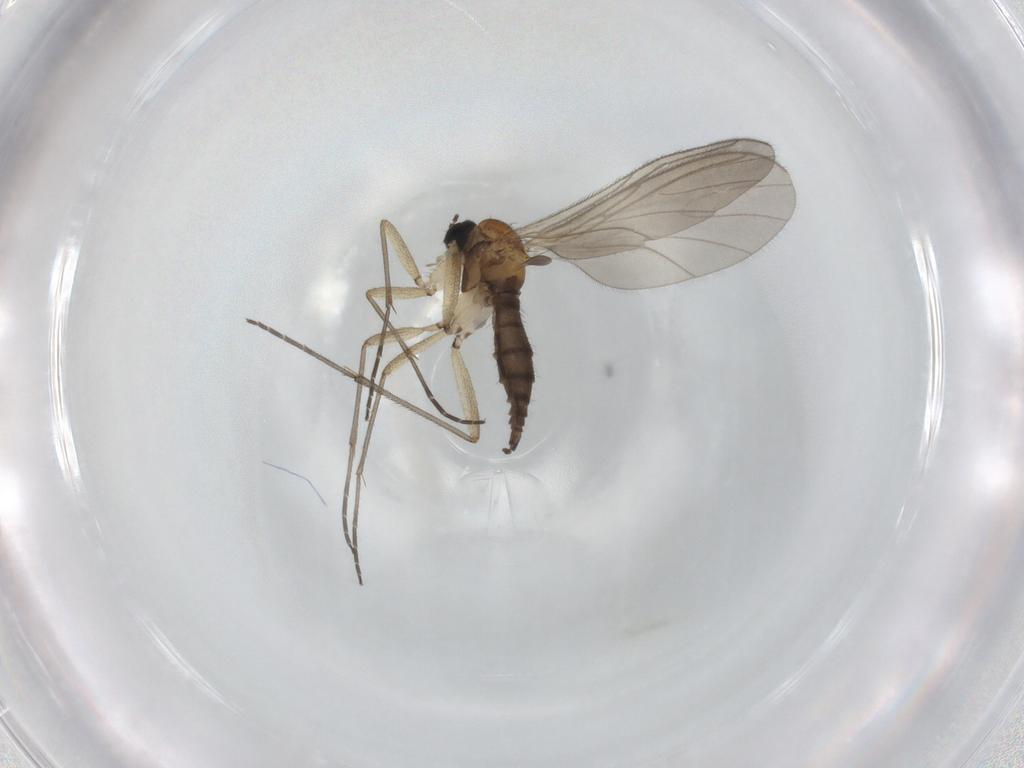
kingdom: Animalia
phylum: Arthropoda
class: Insecta
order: Diptera
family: Sciaridae
